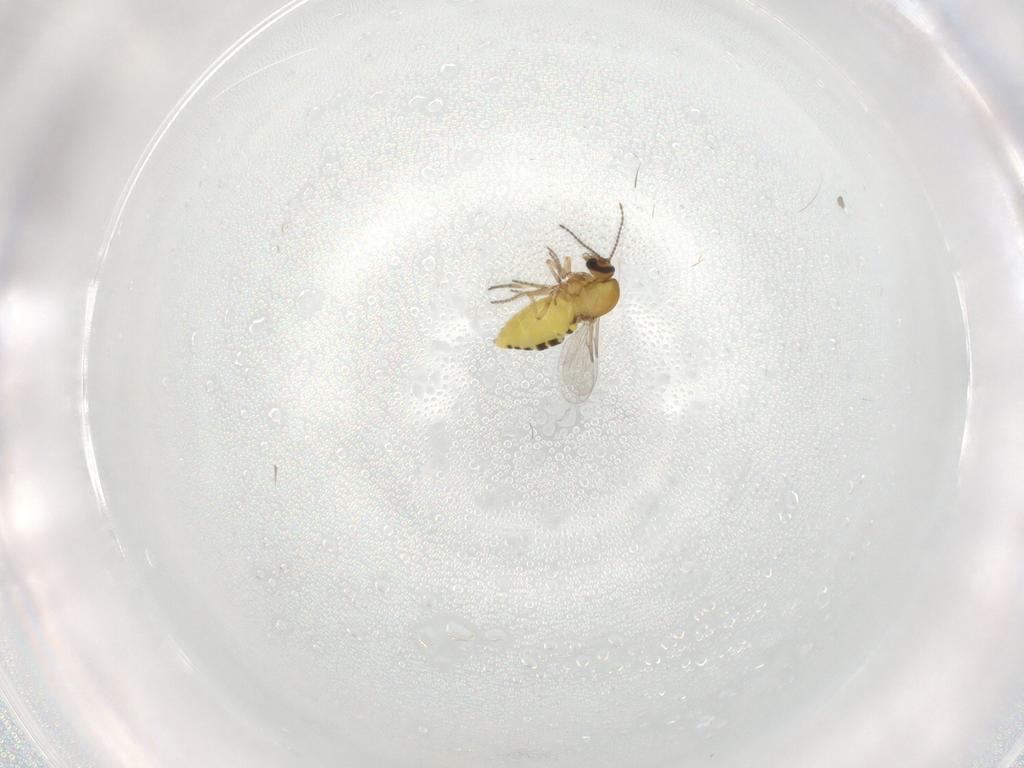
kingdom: Animalia
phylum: Arthropoda
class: Insecta
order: Diptera
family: Ceratopogonidae
